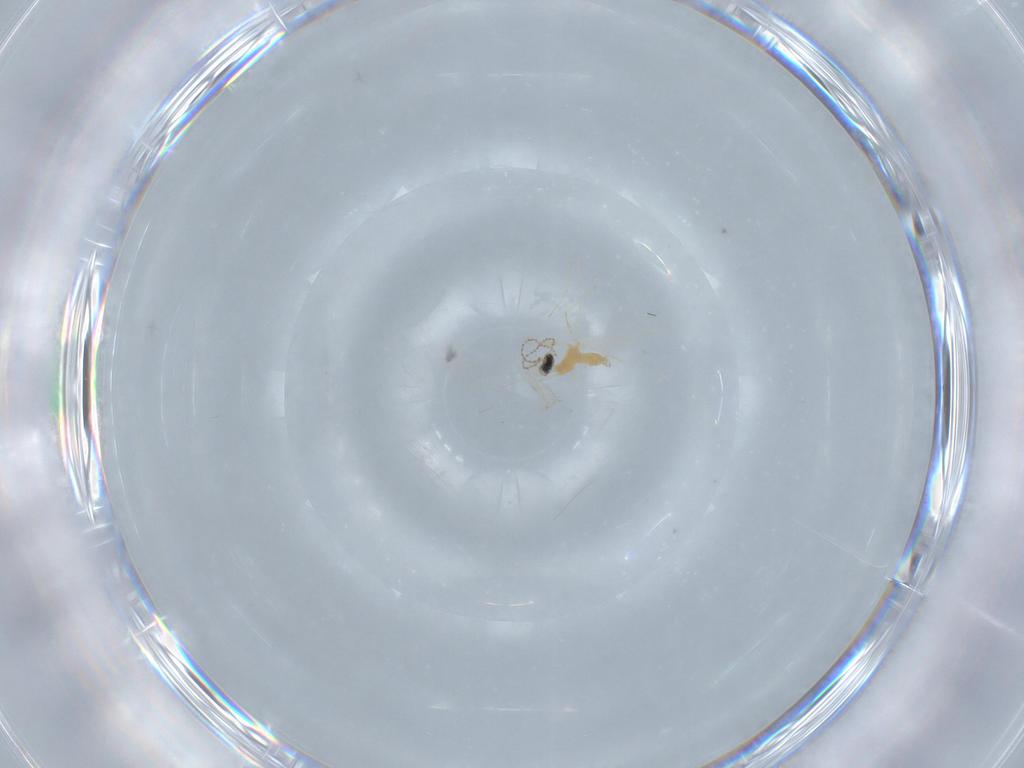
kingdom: Animalia
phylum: Arthropoda
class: Insecta
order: Diptera
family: Cecidomyiidae
